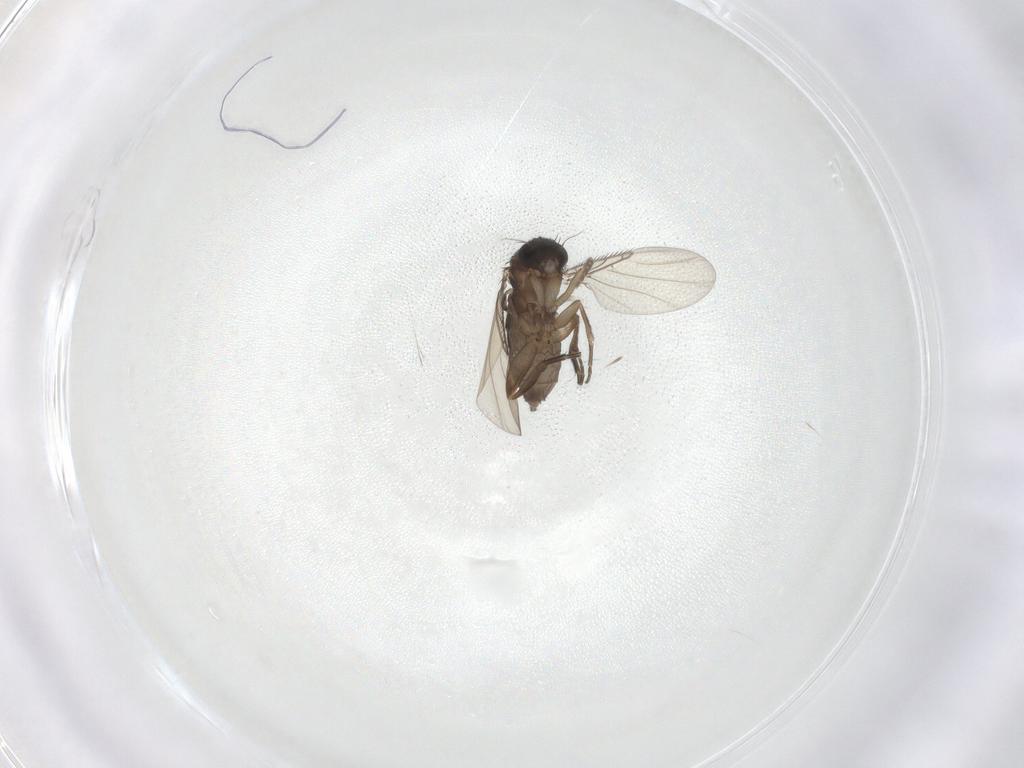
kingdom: Animalia
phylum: Arthropoda
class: Insecta
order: Diptera
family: Phoridae
